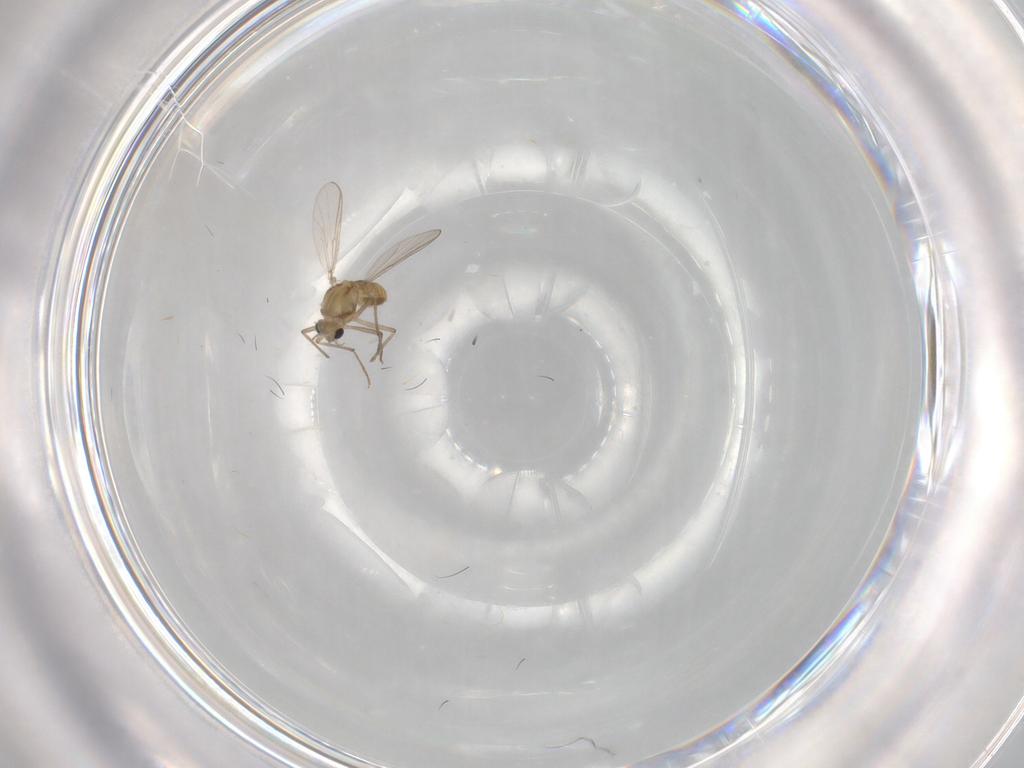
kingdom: Animalia
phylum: Arthropoda
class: Insecta
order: Diptera
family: Chironomidae
